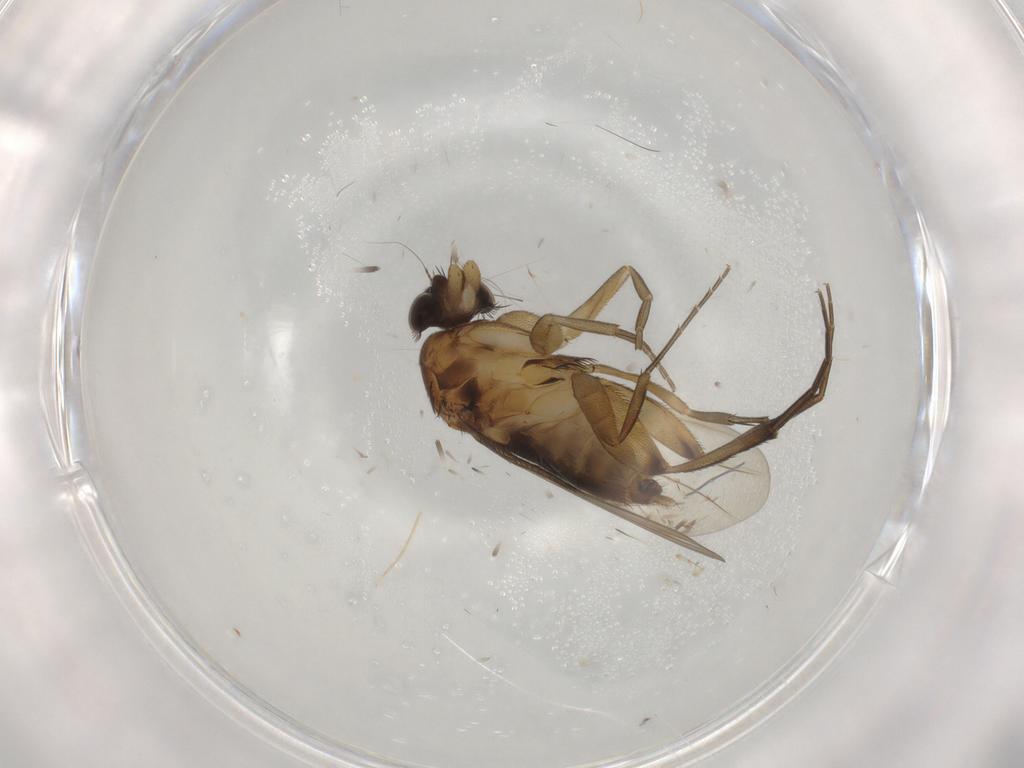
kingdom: Animalia
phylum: Arthropoda
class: Insecta
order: Diptera
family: Phoridae
